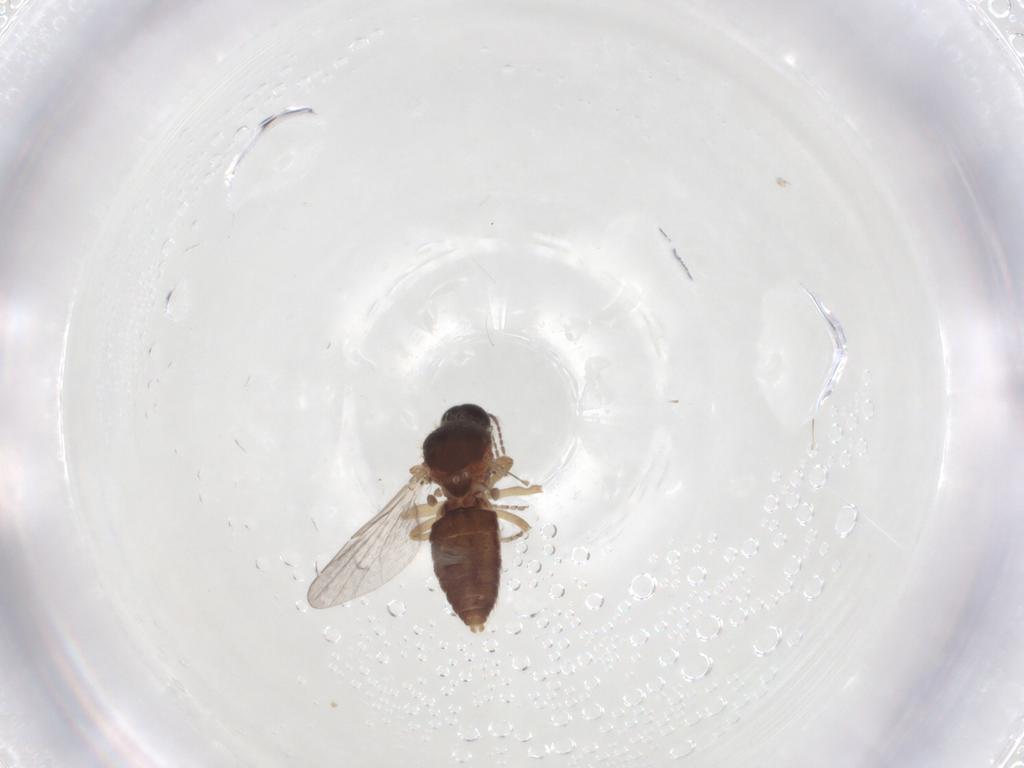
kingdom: Animalia
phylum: Arthropoda
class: Insecta
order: Diptera
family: Ceratopogonidae
